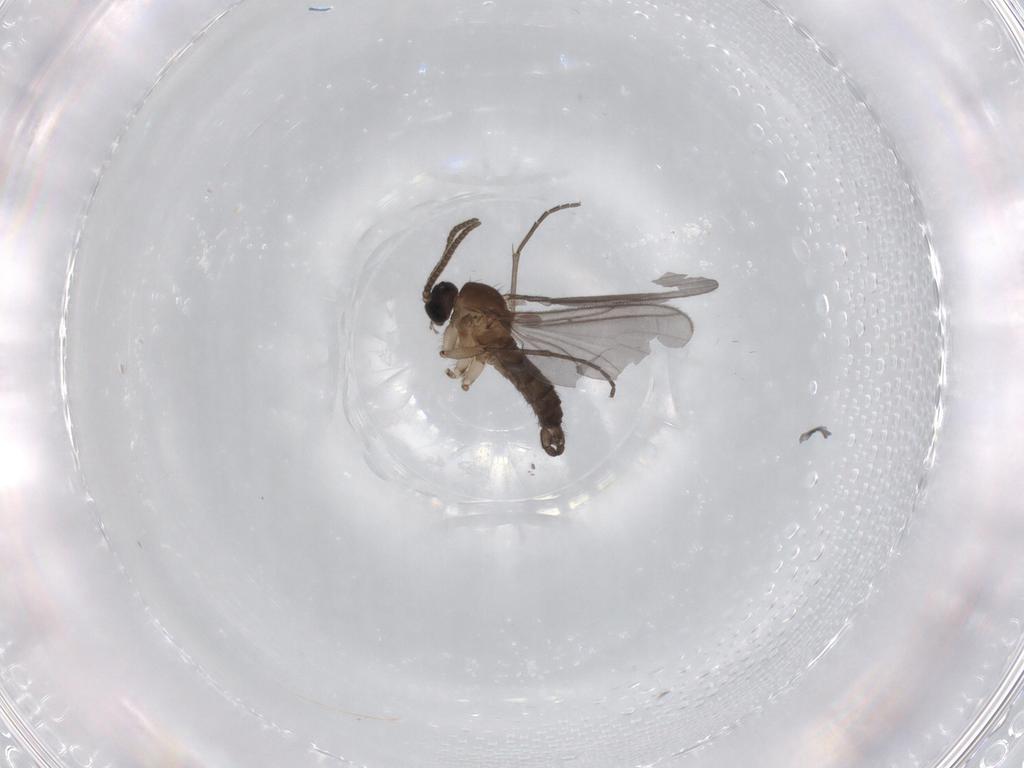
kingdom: Animalia
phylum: Arthropoda
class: Insecta
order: Diptera
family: Sciaridae
